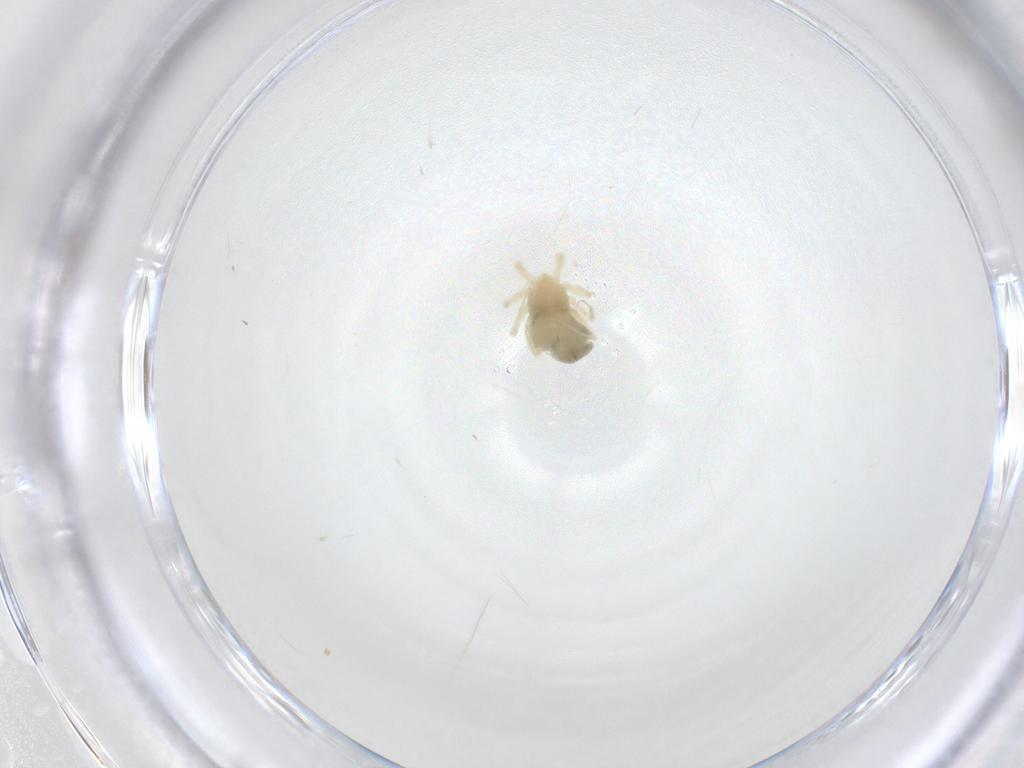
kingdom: Animalia
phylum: Arthropoda
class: Arachnida
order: Trombidiformes
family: Anystidae
